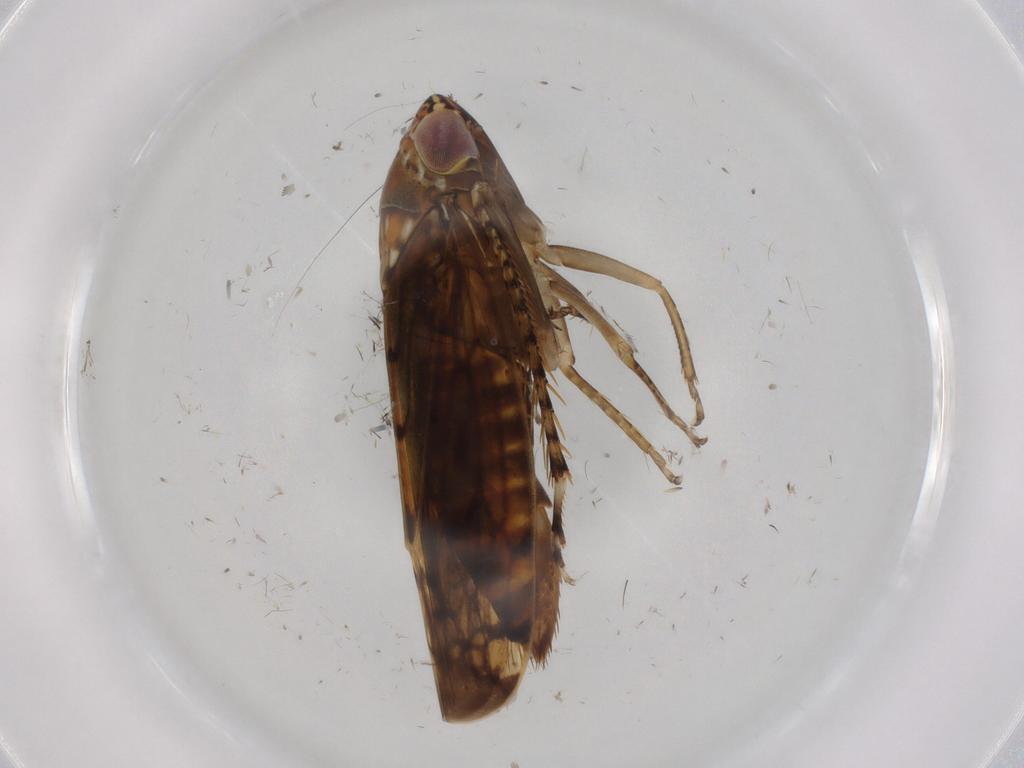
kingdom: Animalia
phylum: Arthropoda
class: Insecta
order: Hemiptera
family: Cicadellidae
